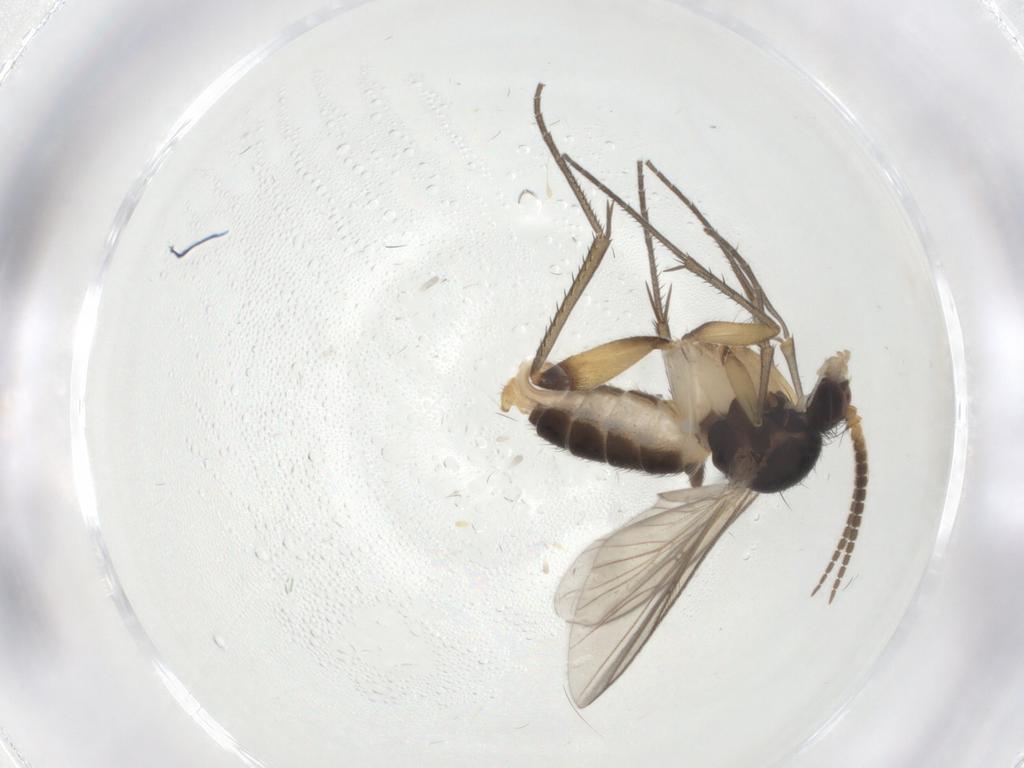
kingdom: Animalia
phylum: Arthropoda
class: Insecta
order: Diptera
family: Mycetophilidae
